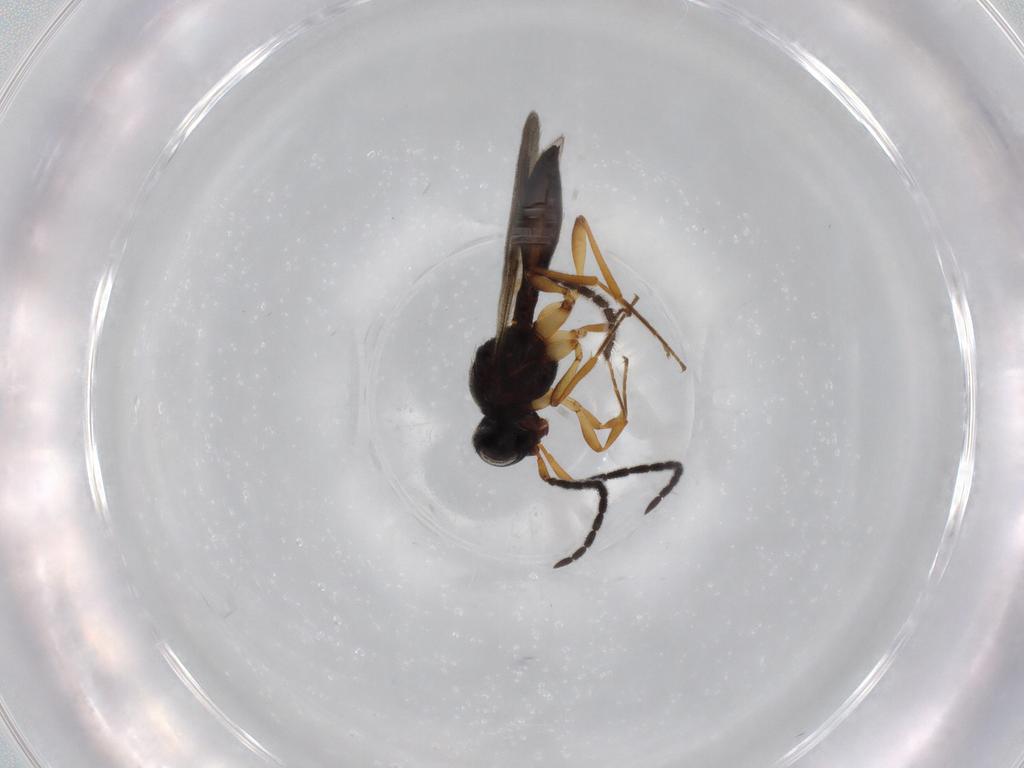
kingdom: Animalia
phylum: Arthropoda
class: Insecta
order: Hymenoptera
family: Scelionidae
